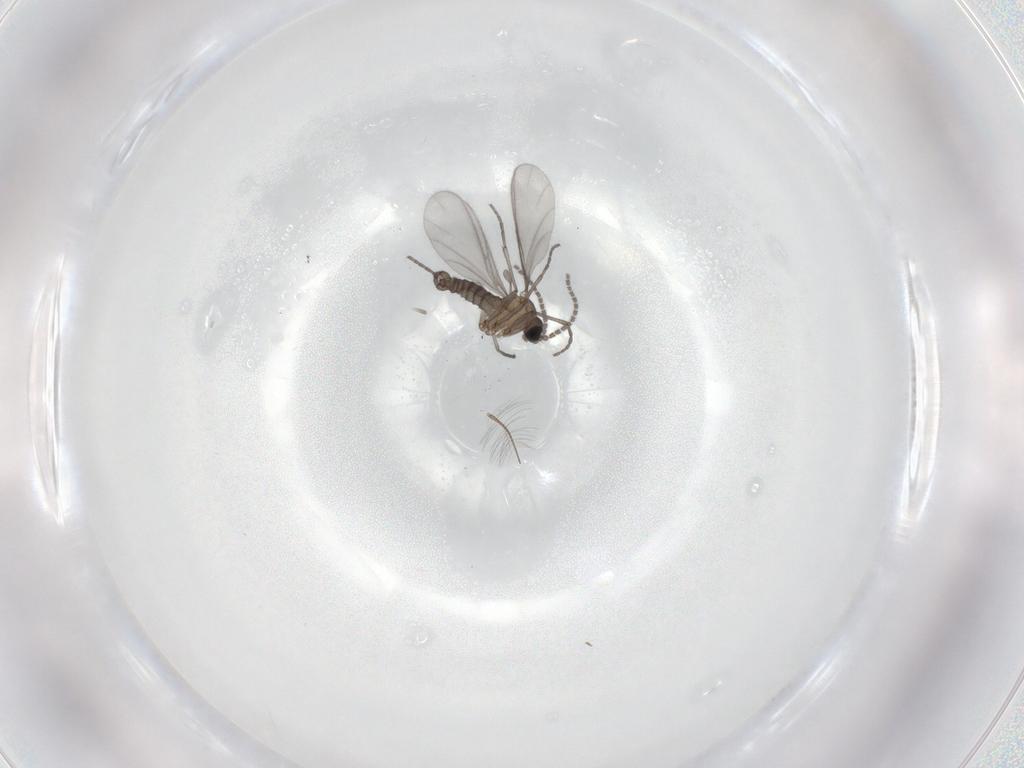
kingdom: Animalia
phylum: Arthropoda
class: Insecta
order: Diptera
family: Sciaridae
